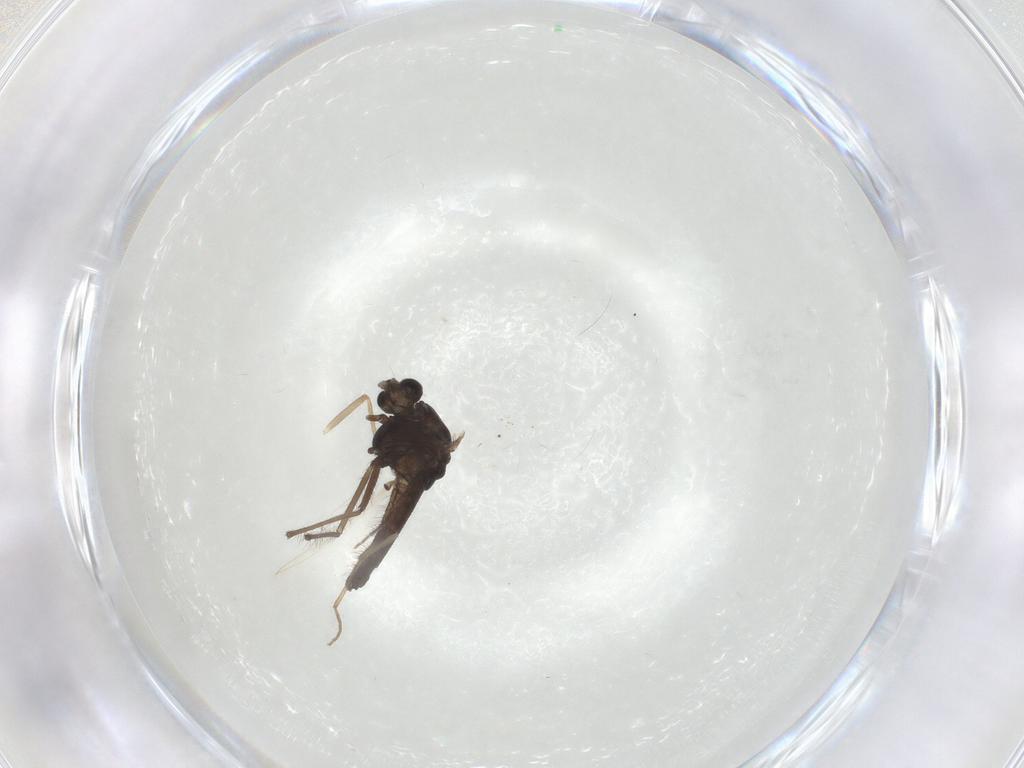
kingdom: Animalia
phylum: Arthropoda
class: Insecta
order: Diptera
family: Chironomidae
